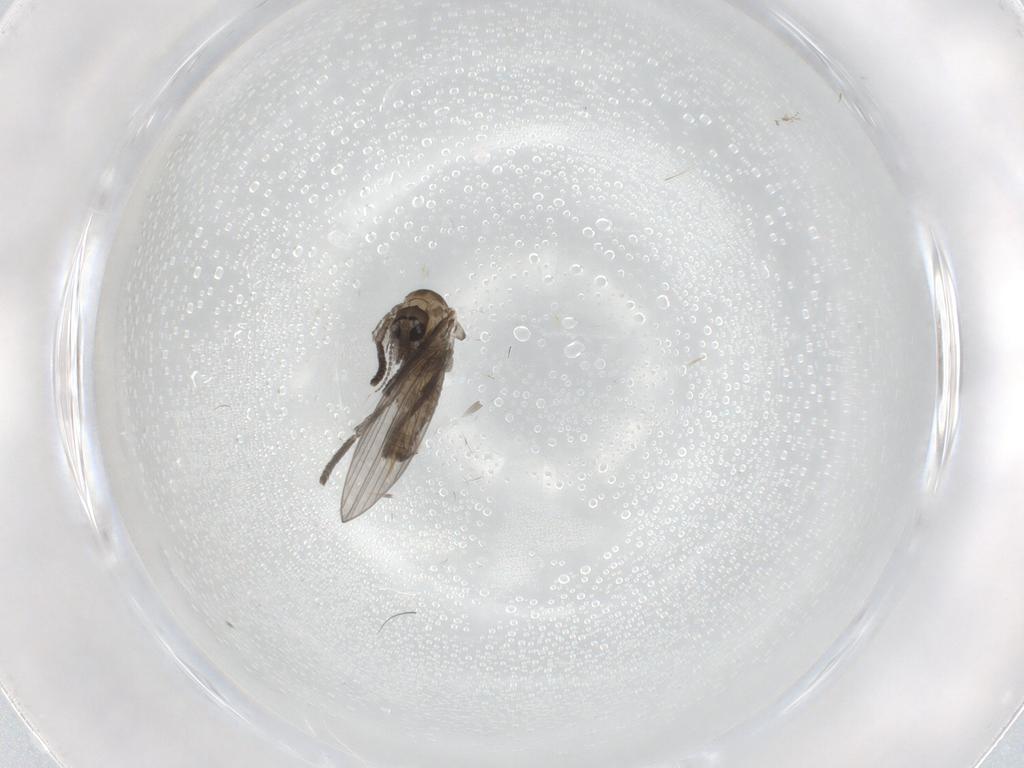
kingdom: Animalia
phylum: Arthropoda
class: Insecta
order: Diptera
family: Psychodidae
